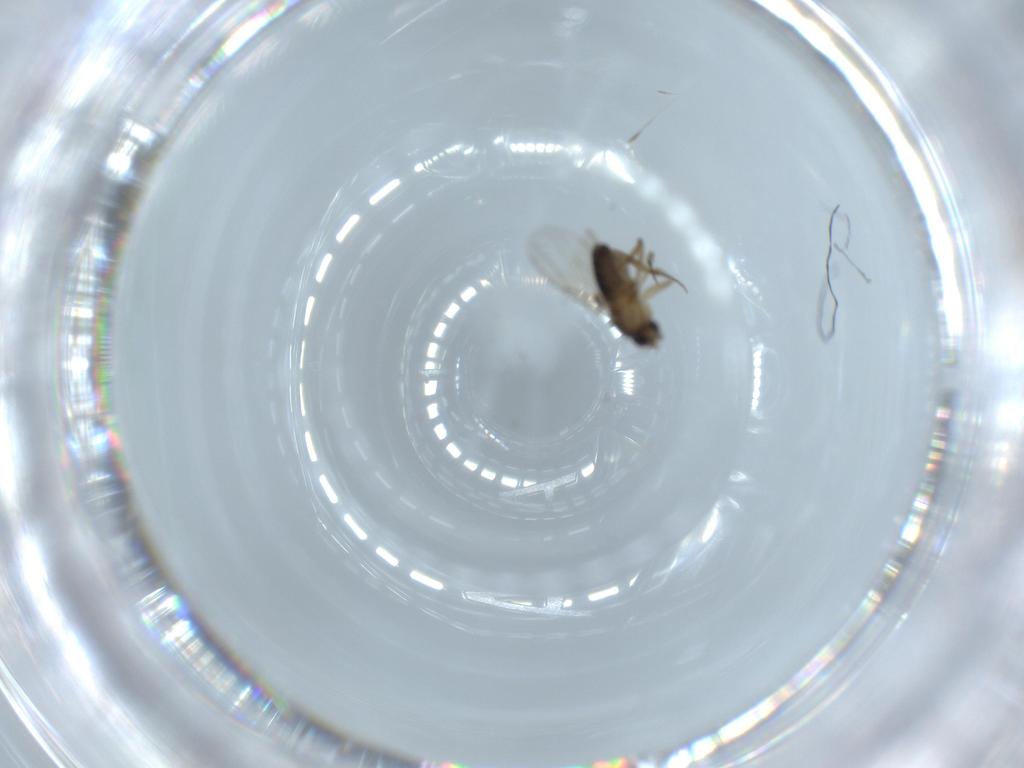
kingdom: Animalia
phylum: Arthropoda
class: Insecta
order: Diptera
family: Phoridae
